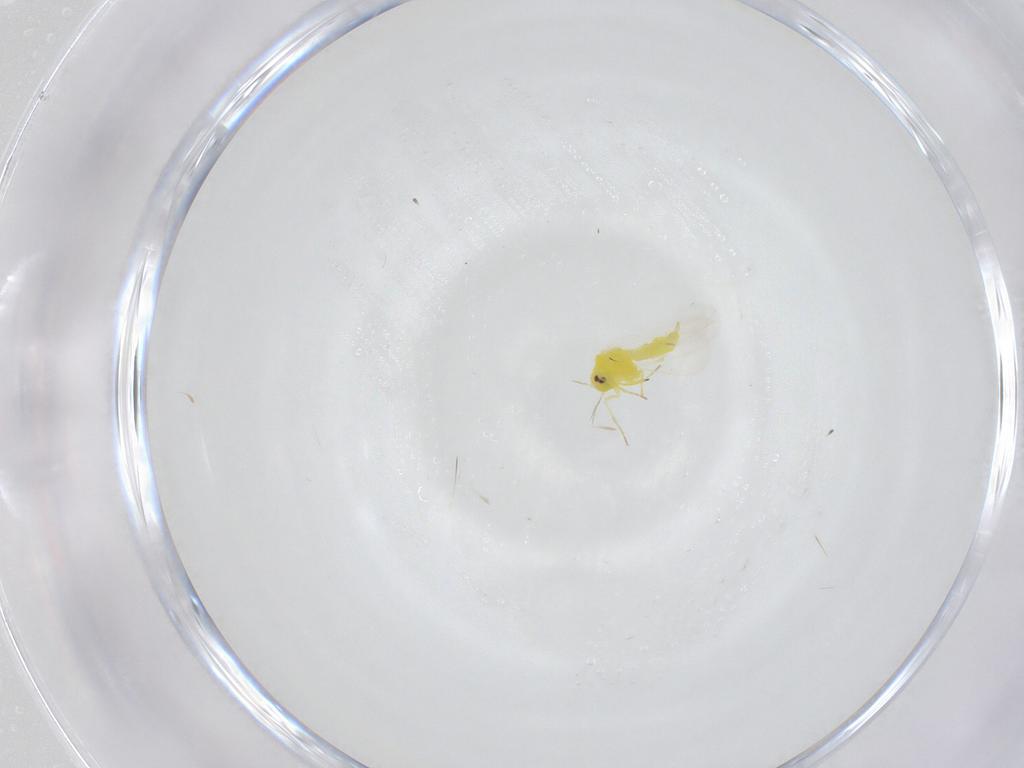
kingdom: Animalia
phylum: Arthropoda
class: Insecta
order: Hemiptera
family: Aleyrodidae
